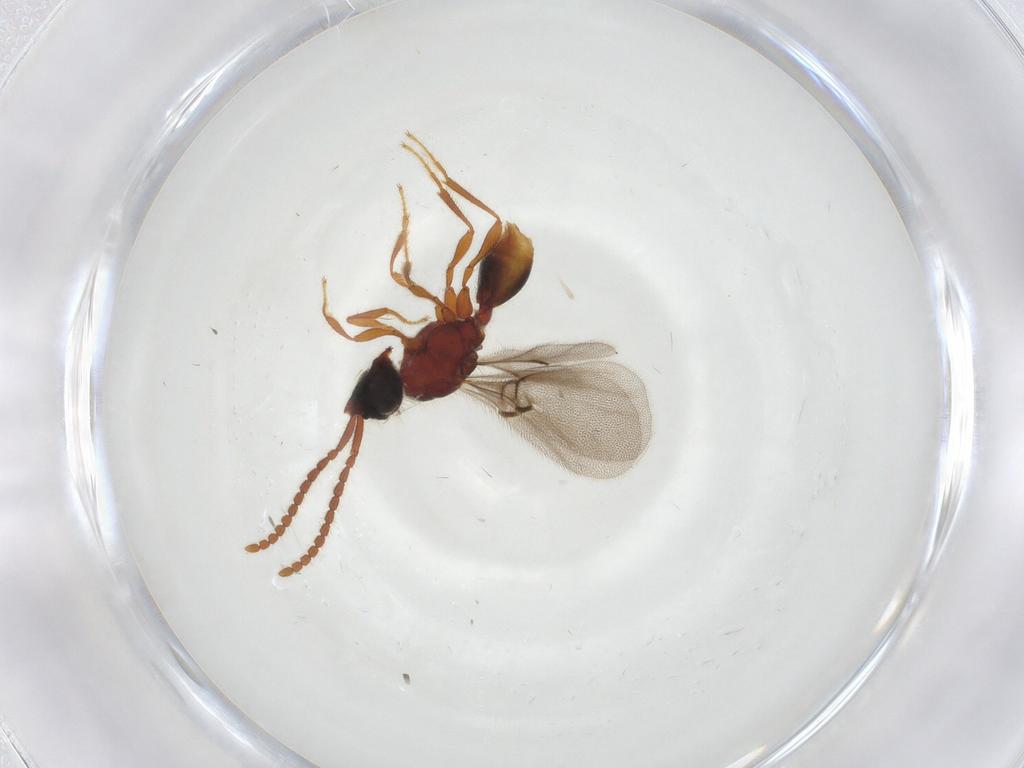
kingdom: Animalia
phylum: Arthropoda
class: Insecta
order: Hymenoptera
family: Diapriidae
